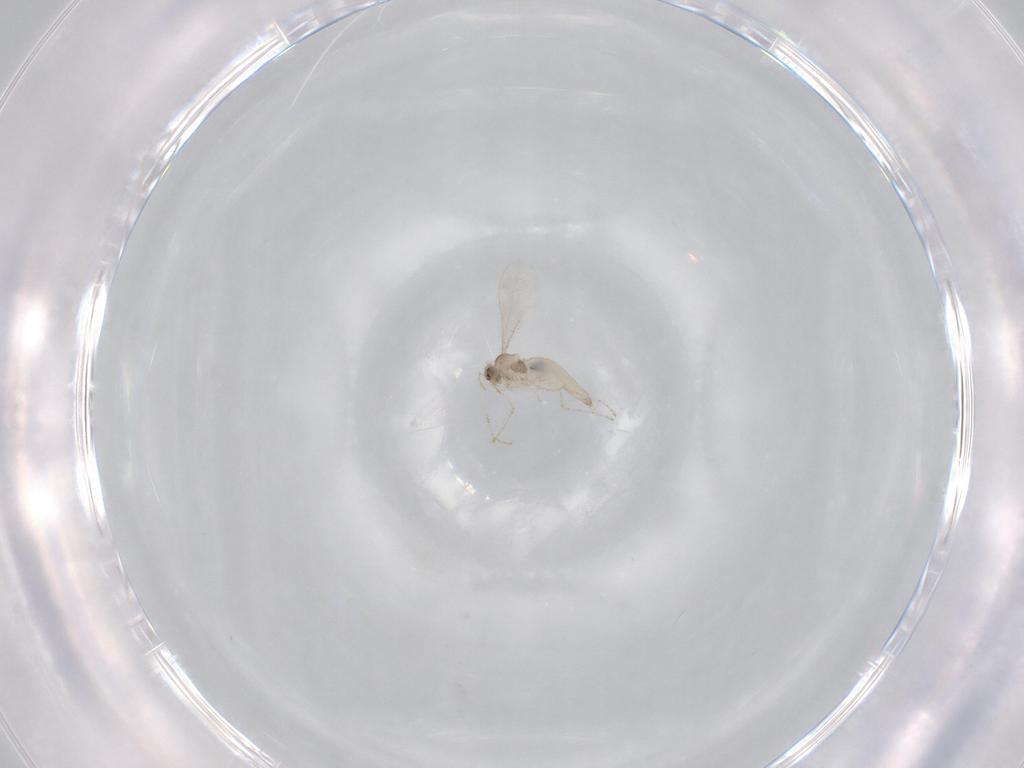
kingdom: Animalia
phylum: Arthropoda
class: Insecta
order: Diptera
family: Cecidomyiidae
